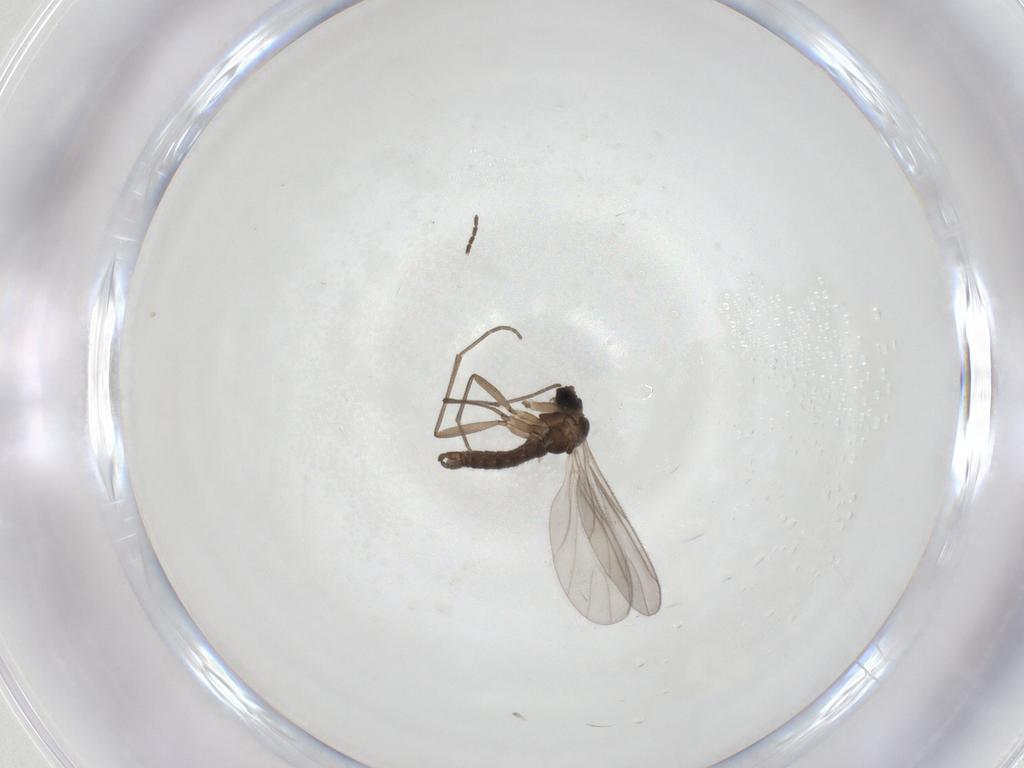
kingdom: Animalia
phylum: Arthropoda
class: Insecta
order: Diptera
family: Sciaridae
